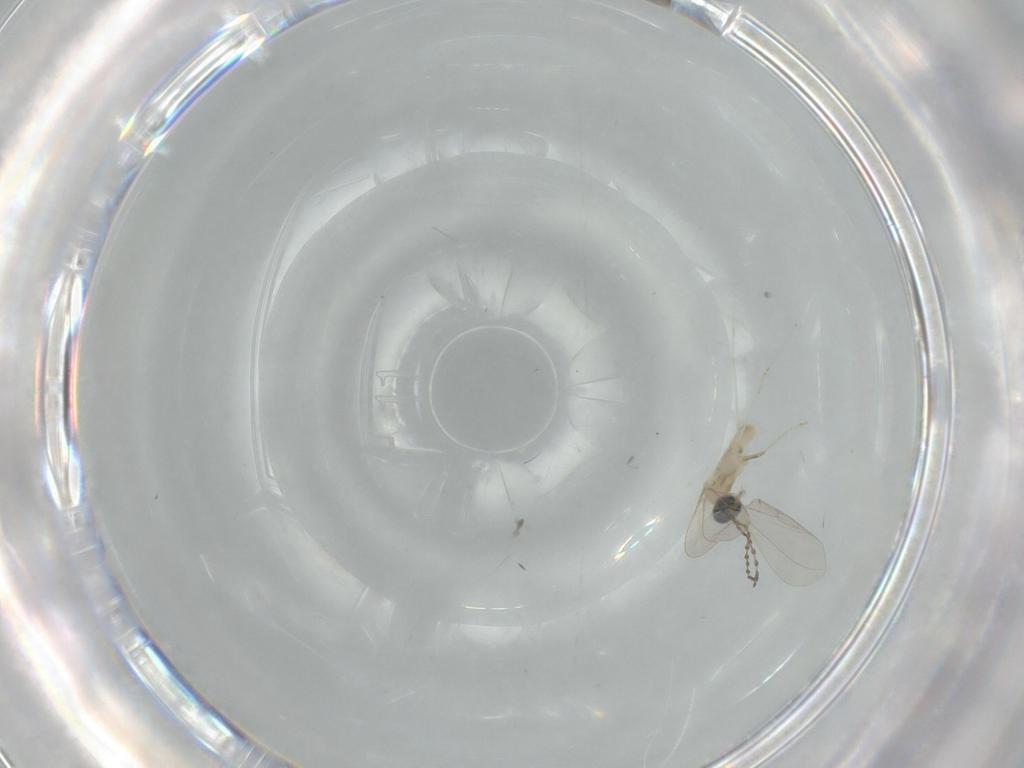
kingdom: Animalia
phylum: Arthropoda
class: Insecta
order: Diptera
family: Cecidomyiidae
